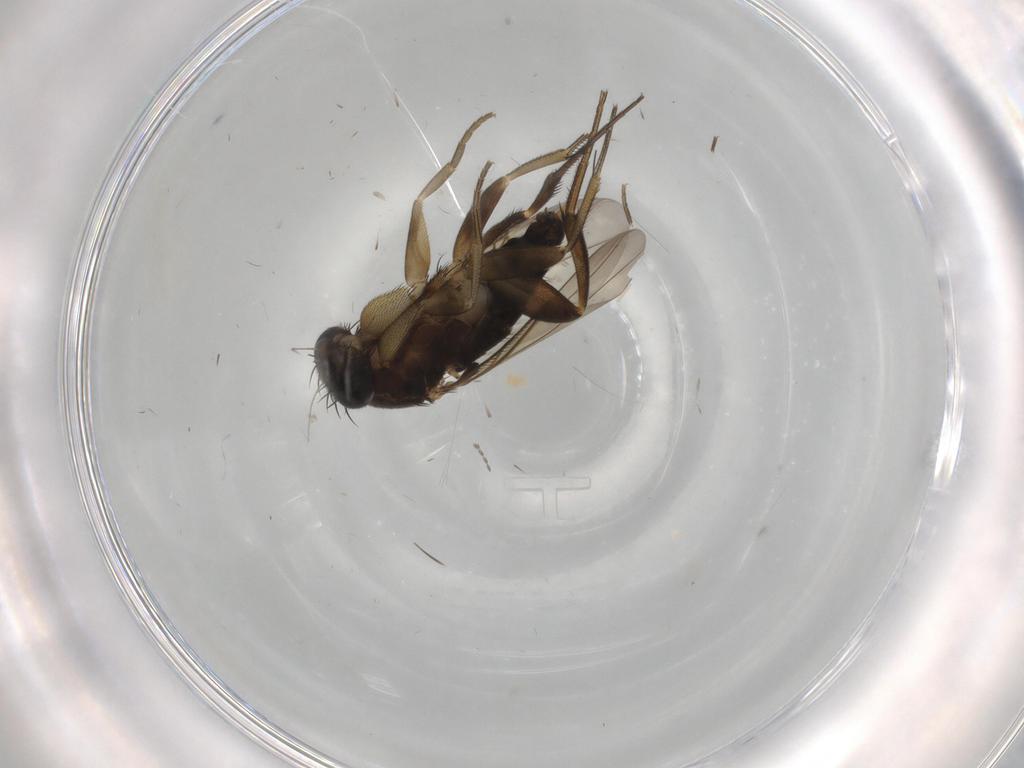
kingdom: Animalia
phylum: Arthropoda
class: Insecta
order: Diptera
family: Phoridae
